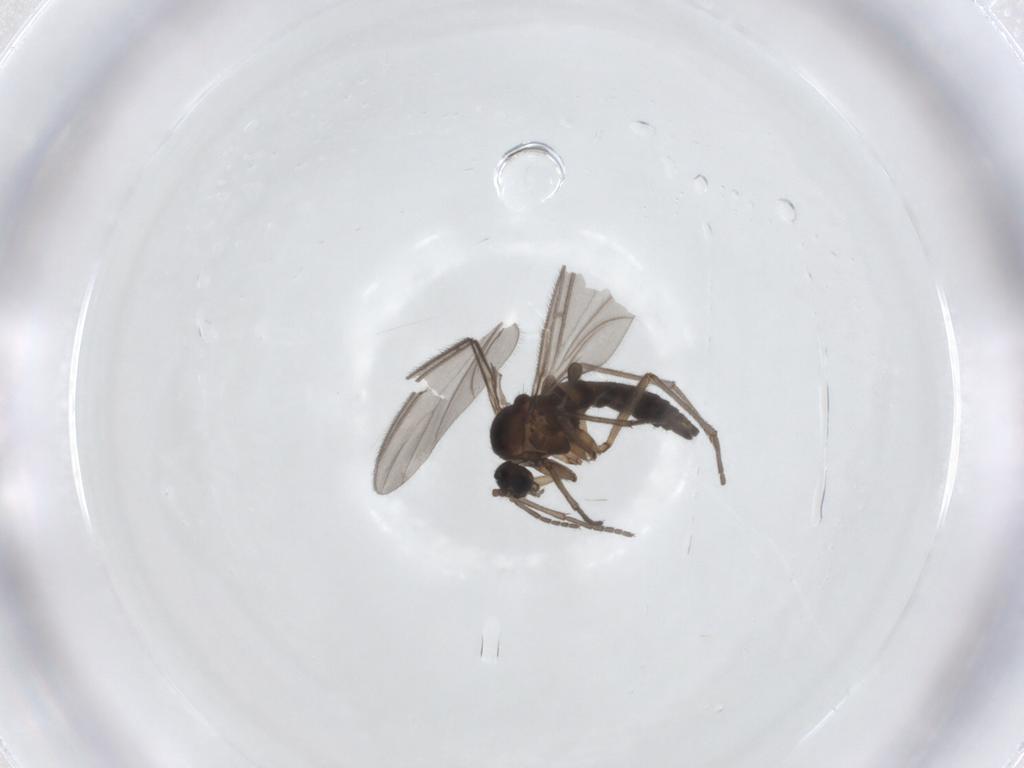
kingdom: Animalia
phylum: Arthropoda
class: Insecta
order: Diptera
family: Sciaridae
